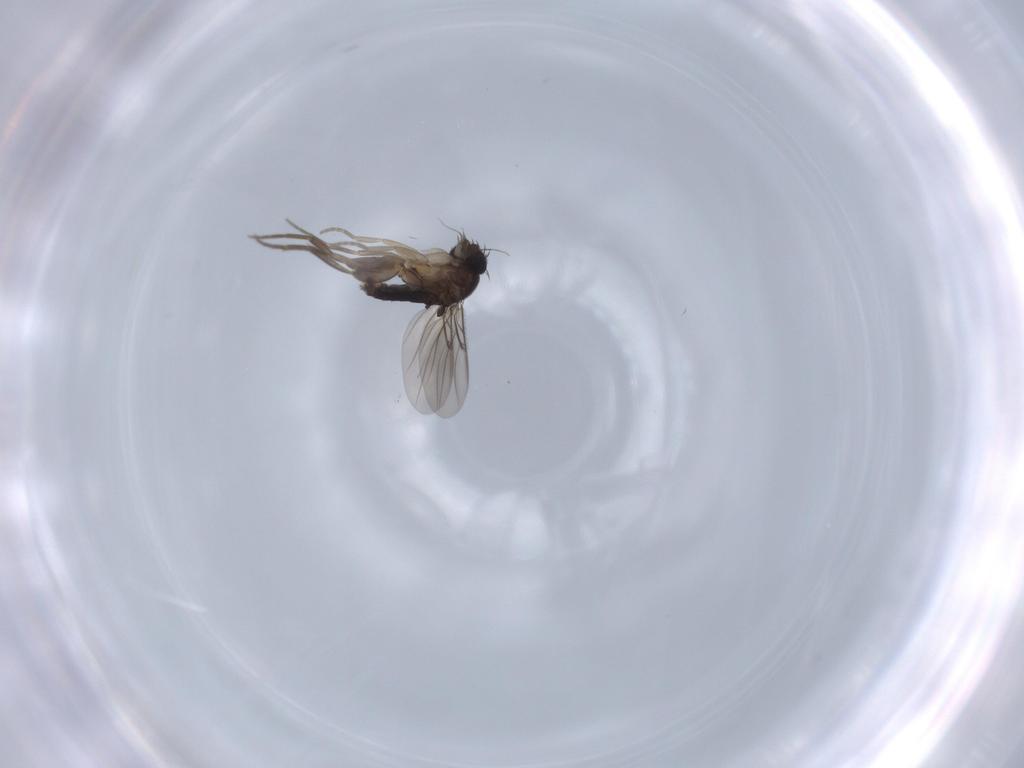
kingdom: Animalia
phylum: Arthropoda
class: Insecta
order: Diptera
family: Phoridae
